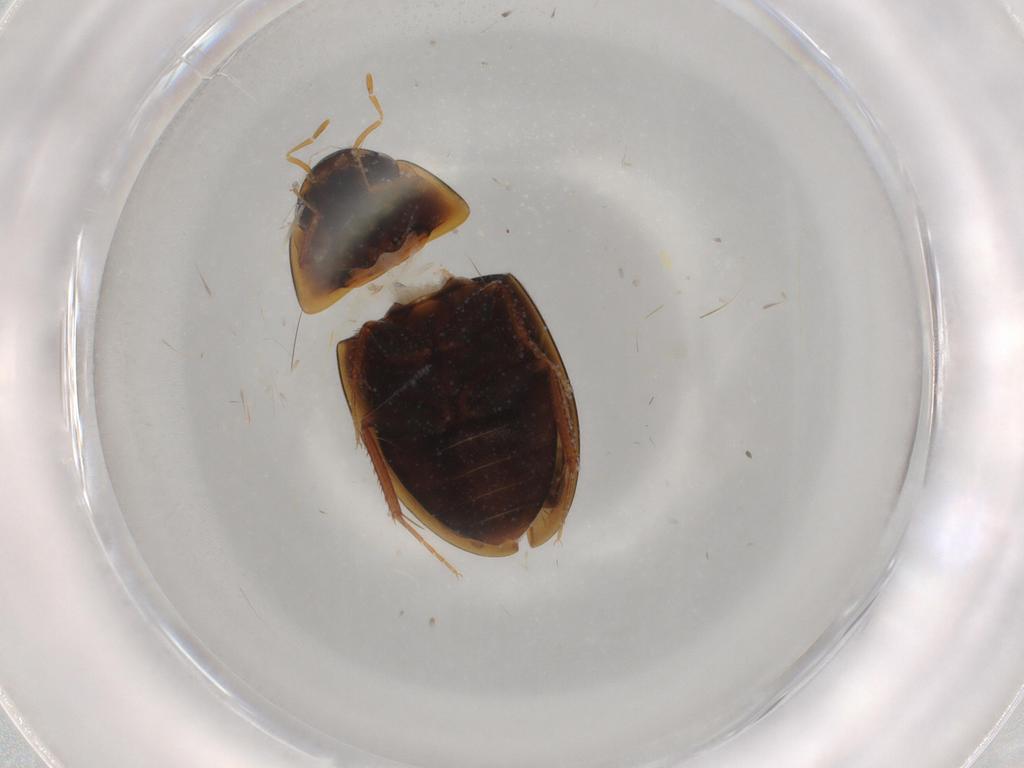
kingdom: Animalia
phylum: Arthropoda
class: Insecta
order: Coleoptera
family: Hydrophilidae
